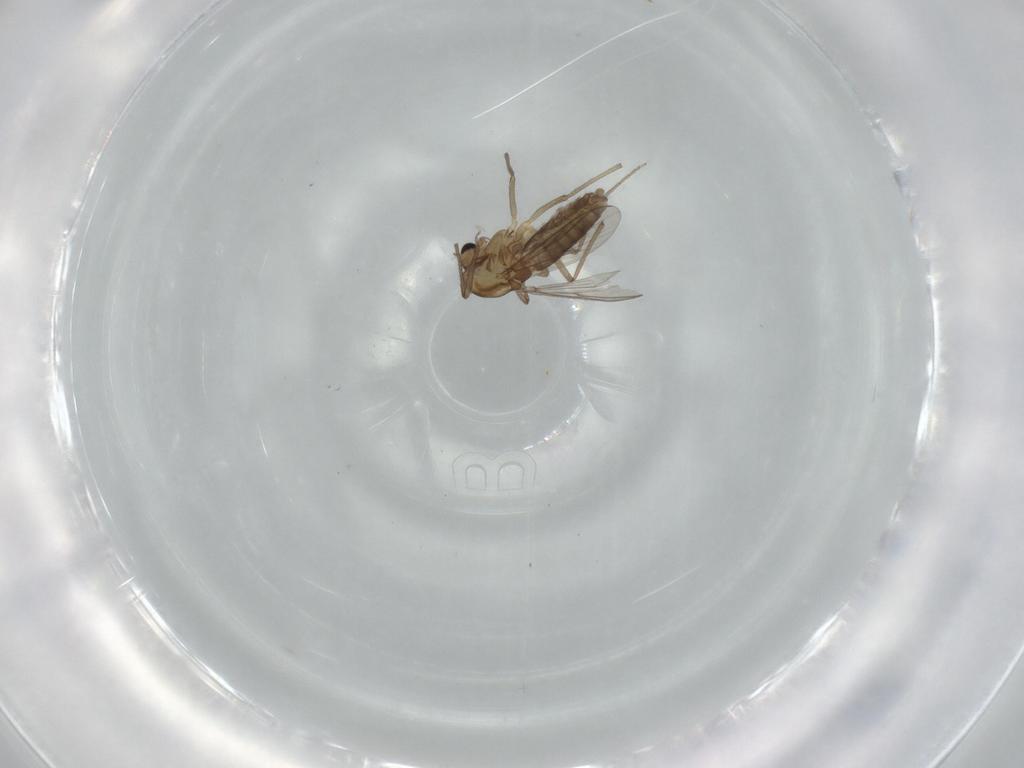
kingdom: Animalia
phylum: Arthropoda
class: Insecta
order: Diptera
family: Chironomidae
